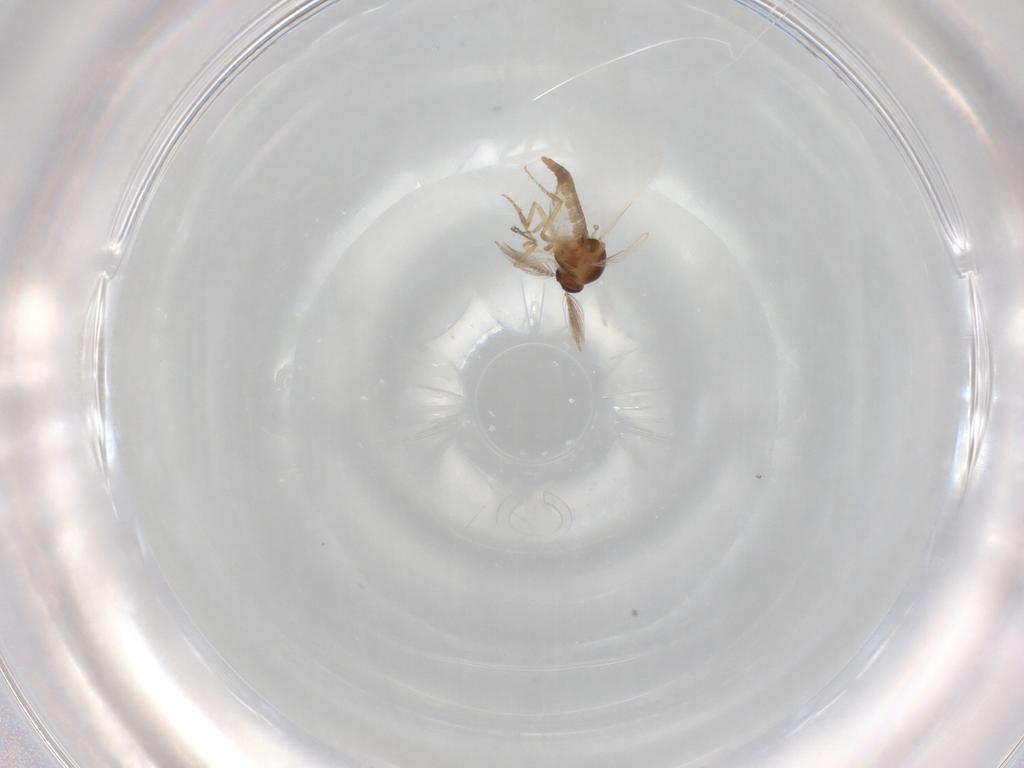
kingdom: Animalia
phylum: Arthropoda
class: Insecta
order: Diptera
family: Ceratopogonidae
